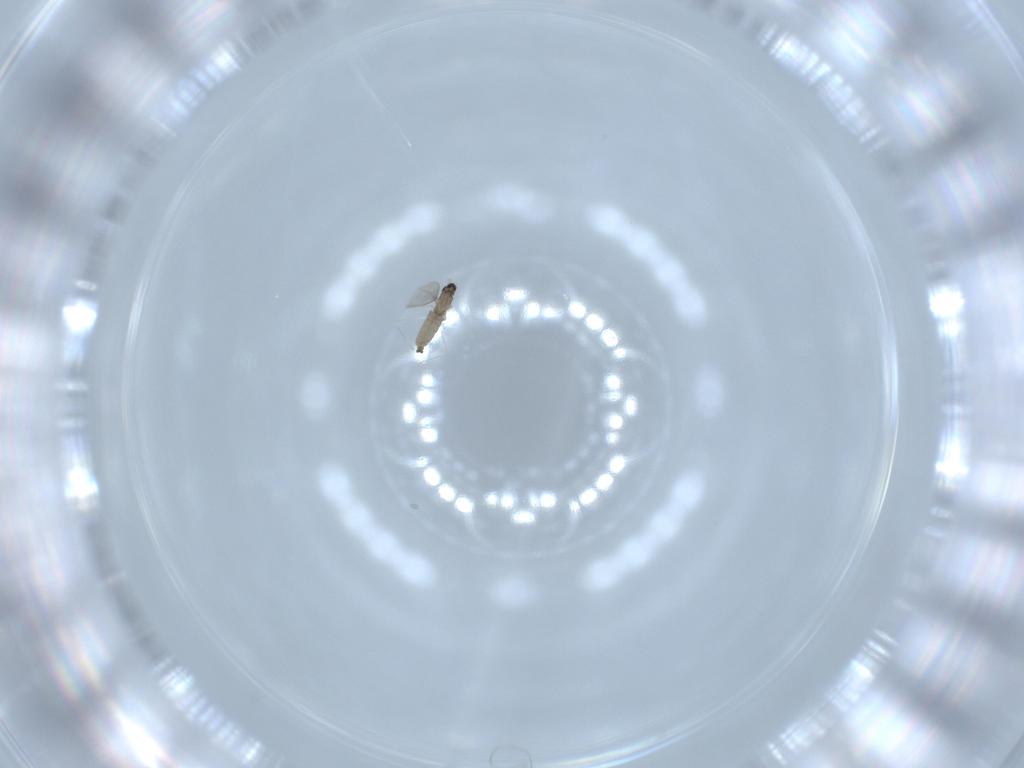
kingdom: Animalia
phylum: Arthropoda
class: Insecta
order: Diptera
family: Cecidomyiidae
